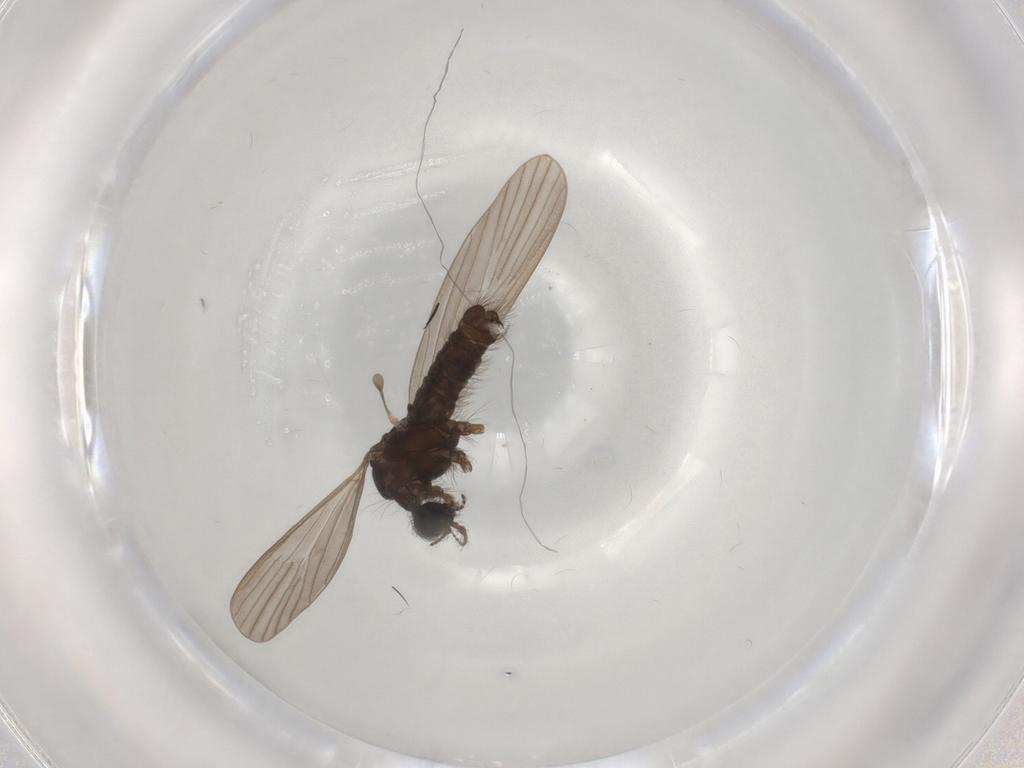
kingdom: Animalia
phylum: Arthropoda
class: Insecta
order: Diptera
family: Limoniidae
